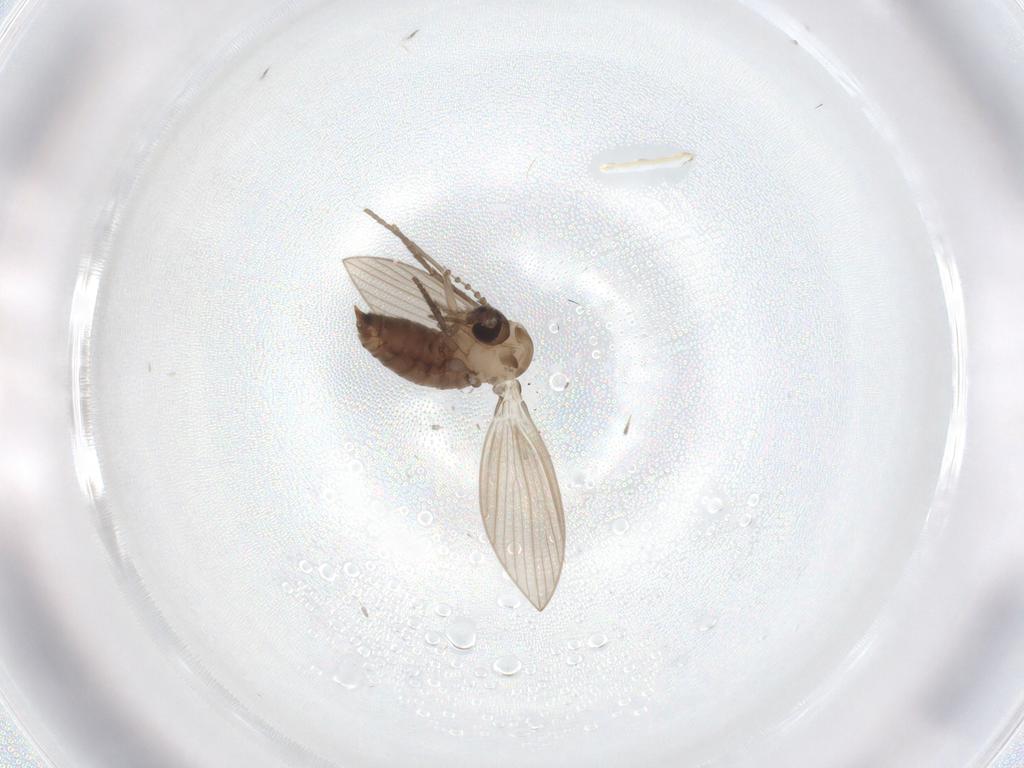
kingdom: Animalia
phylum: Arthropoda
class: Insecta
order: Diptera
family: Psychodidae
